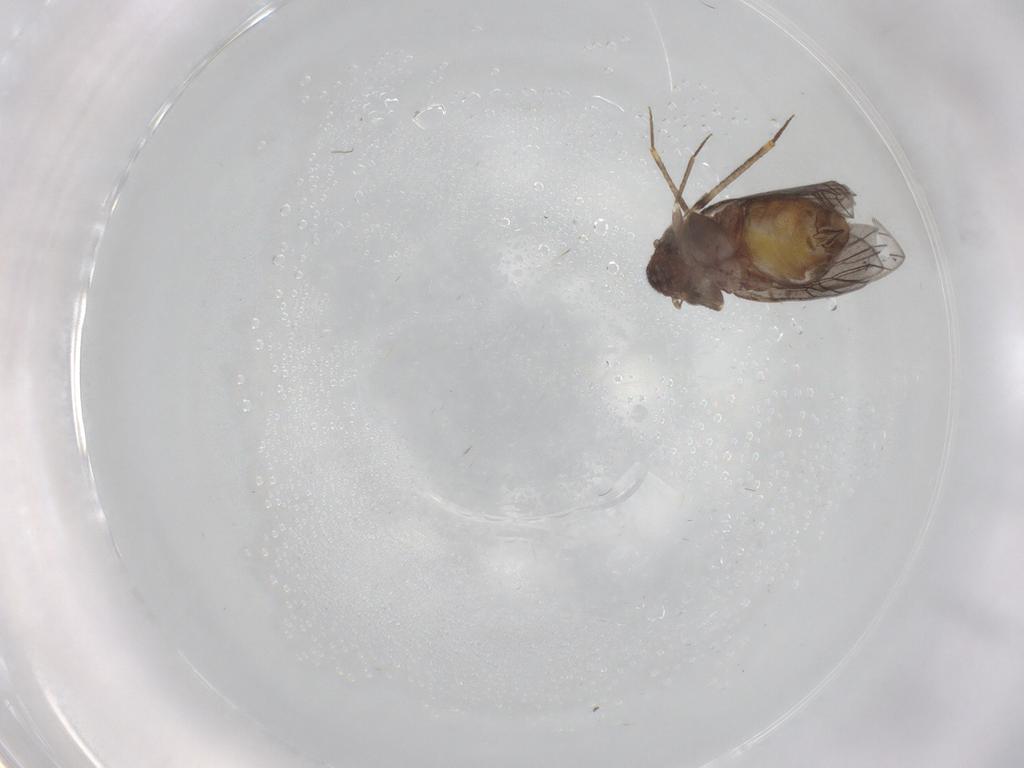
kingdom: Animalia
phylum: Arthropoda
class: Insecta
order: Psocodea
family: Lepidopsocidae
